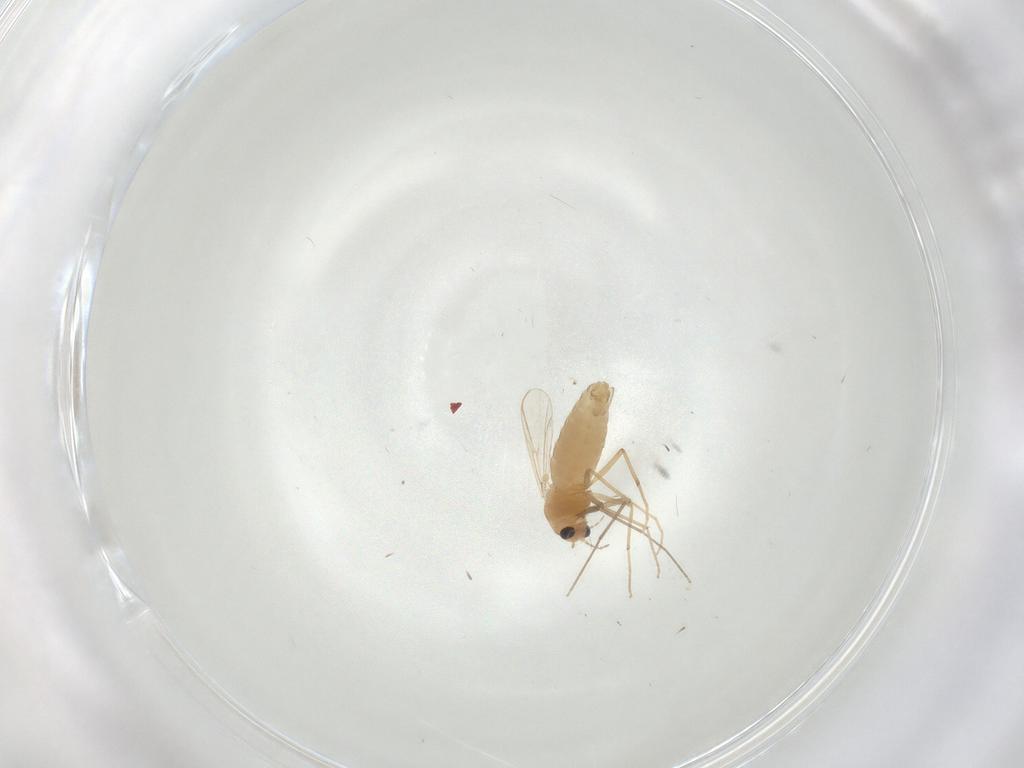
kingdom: Animalia
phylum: Arthropoda
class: Insecta
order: Diptera
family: Chironomidae
